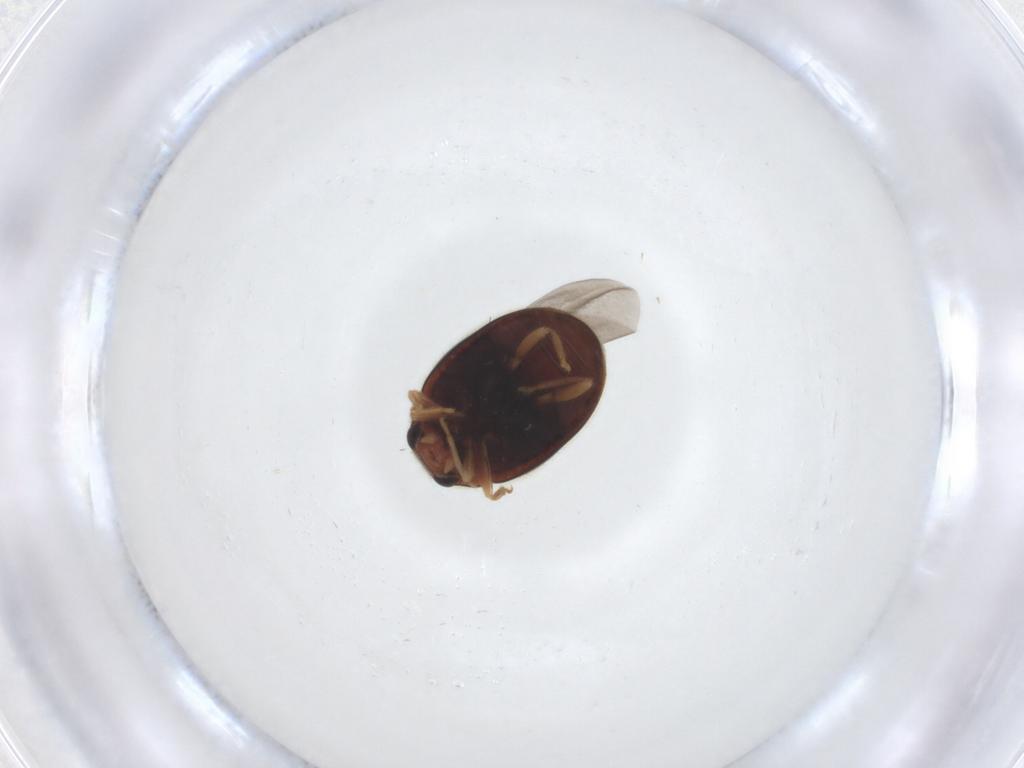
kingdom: Animalia
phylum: Arthropoda
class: Insecta
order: Coleoptera
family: Coccinellidae
